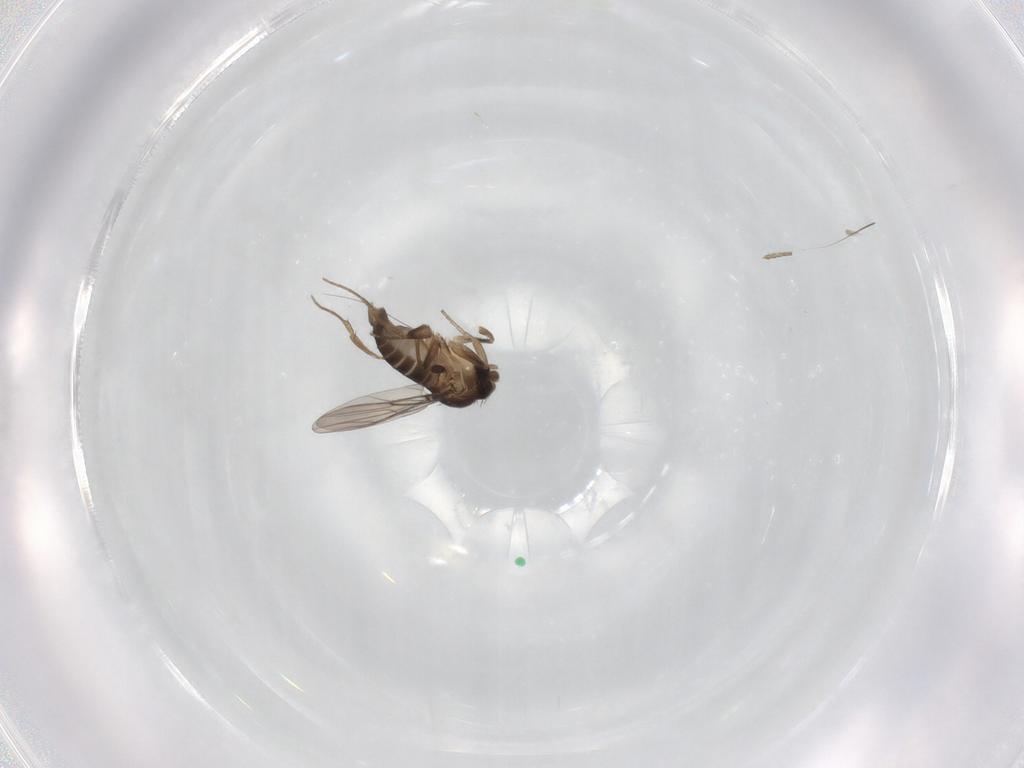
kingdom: Animalia
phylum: Arthropoda
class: Insecta
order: Diptera
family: Phoridae
